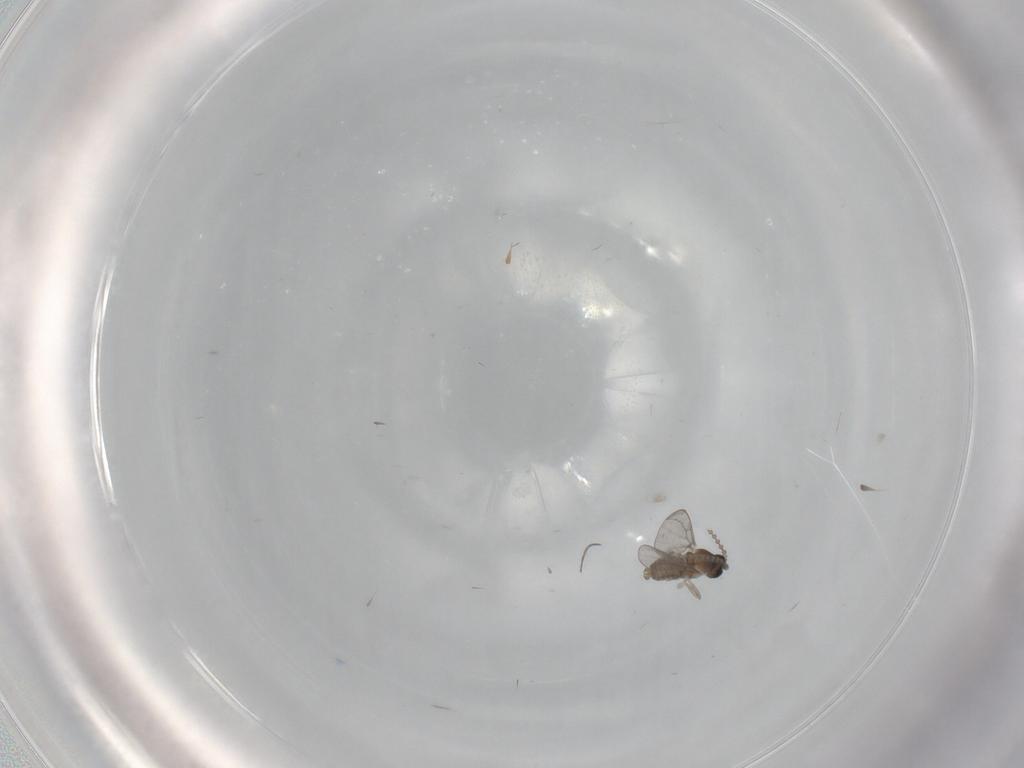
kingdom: Animalia
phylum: Arthropoda
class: Insecta
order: Diptera
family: Cecidomyiidae
